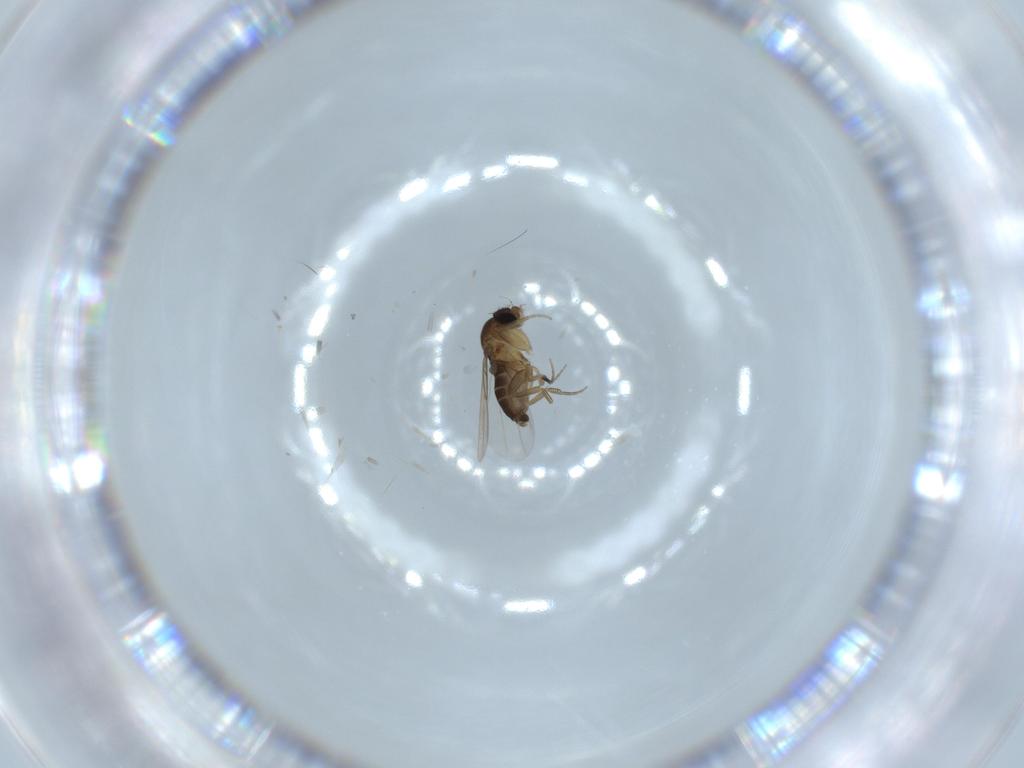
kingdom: Animalia
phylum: Arthropoda
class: Insecta
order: Diptera
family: Phoridae
